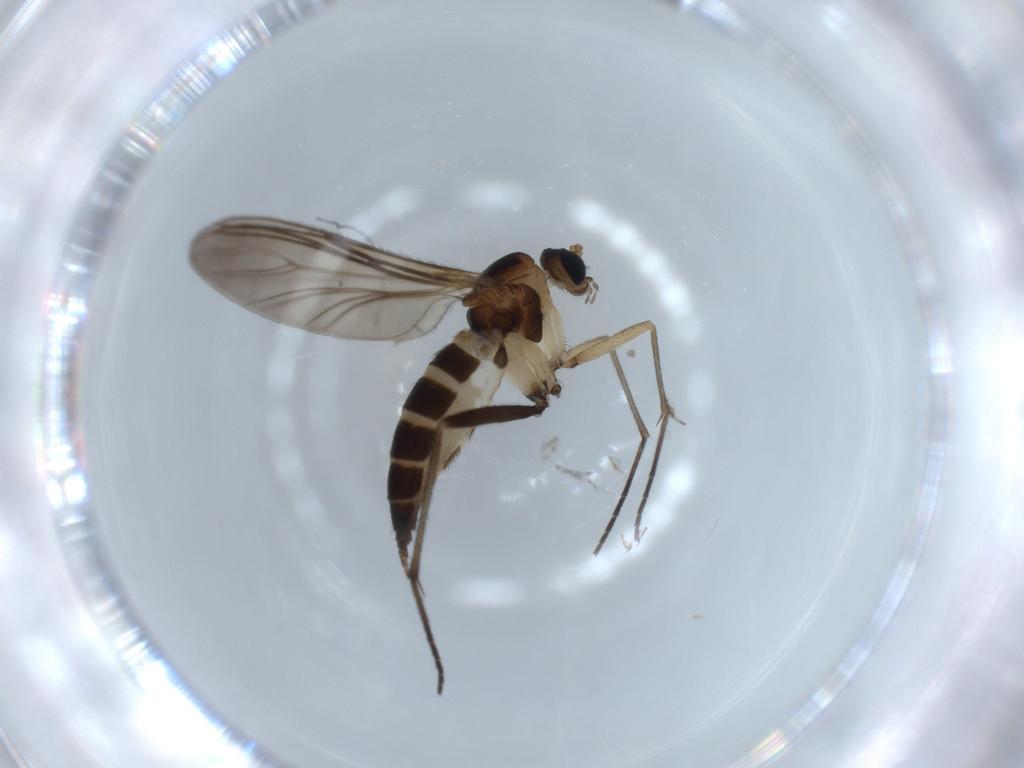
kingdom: Animalia
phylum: Arthropoda
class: Insecta
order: Diptera
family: Sciaridae
